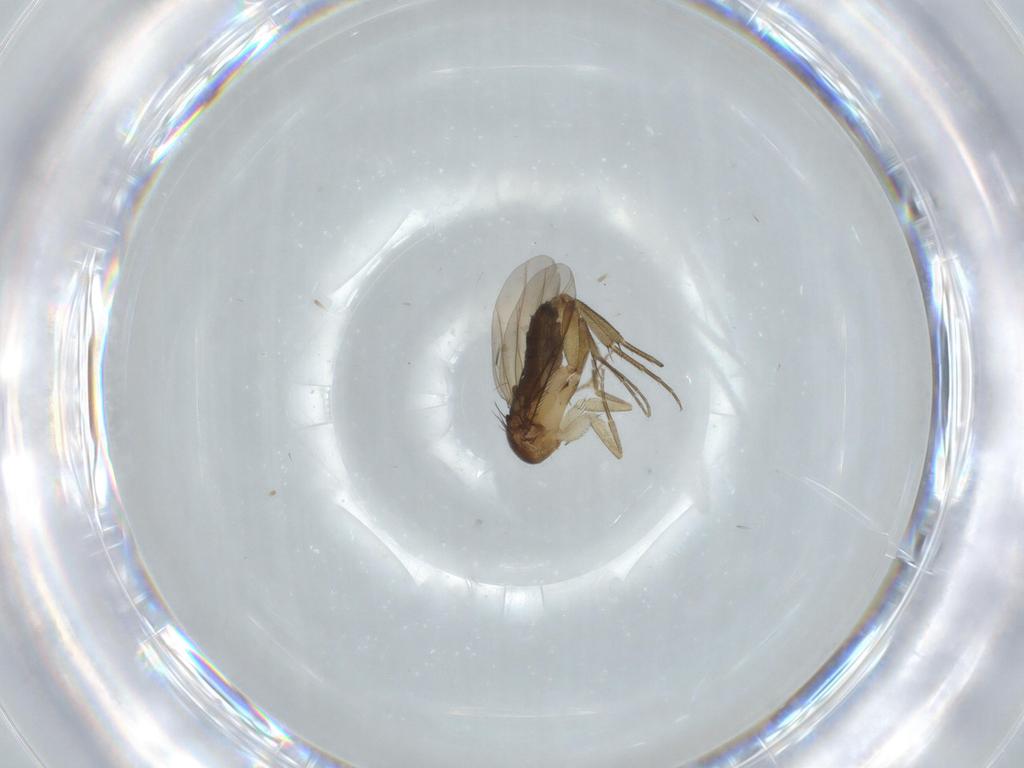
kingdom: Animalia
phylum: Arthropoda
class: Insecta
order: Diptera
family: Phoridae
